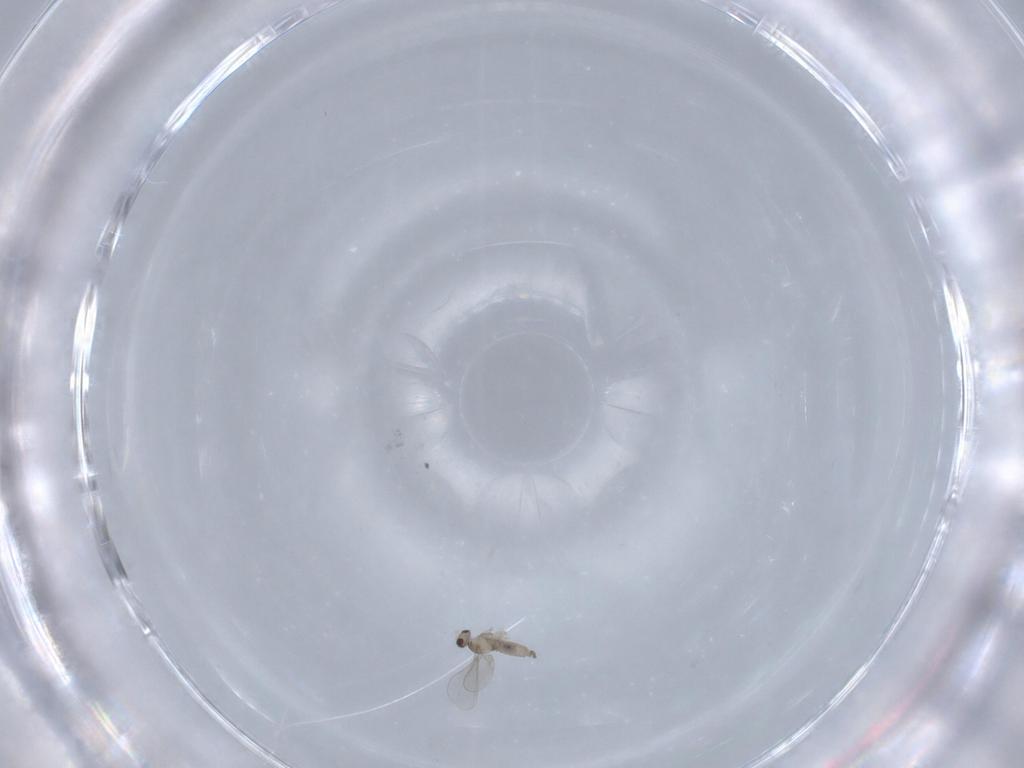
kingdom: Animalia
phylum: Arthropoda
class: Insecta
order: Diptera
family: Cecidomyiidae
